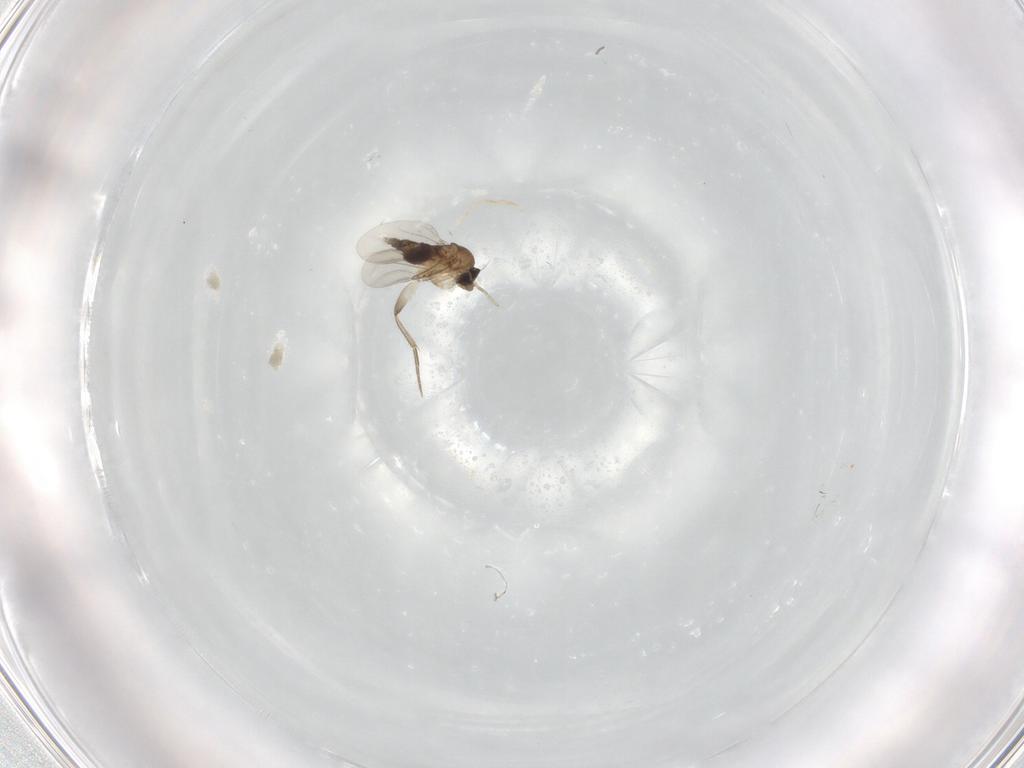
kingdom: Animalia
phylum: Arthropoda
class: Insecta
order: Diptera
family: Phoridae
